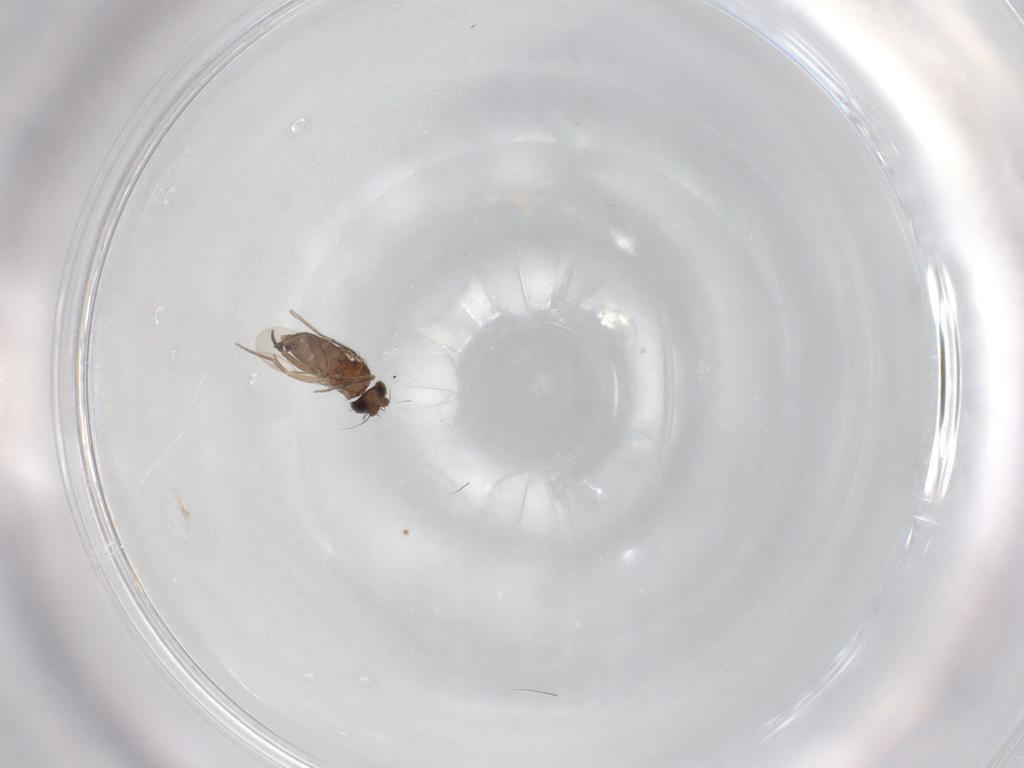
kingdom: Animalia
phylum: Arthropoda
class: Insecta
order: Diptera
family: Phoridae
